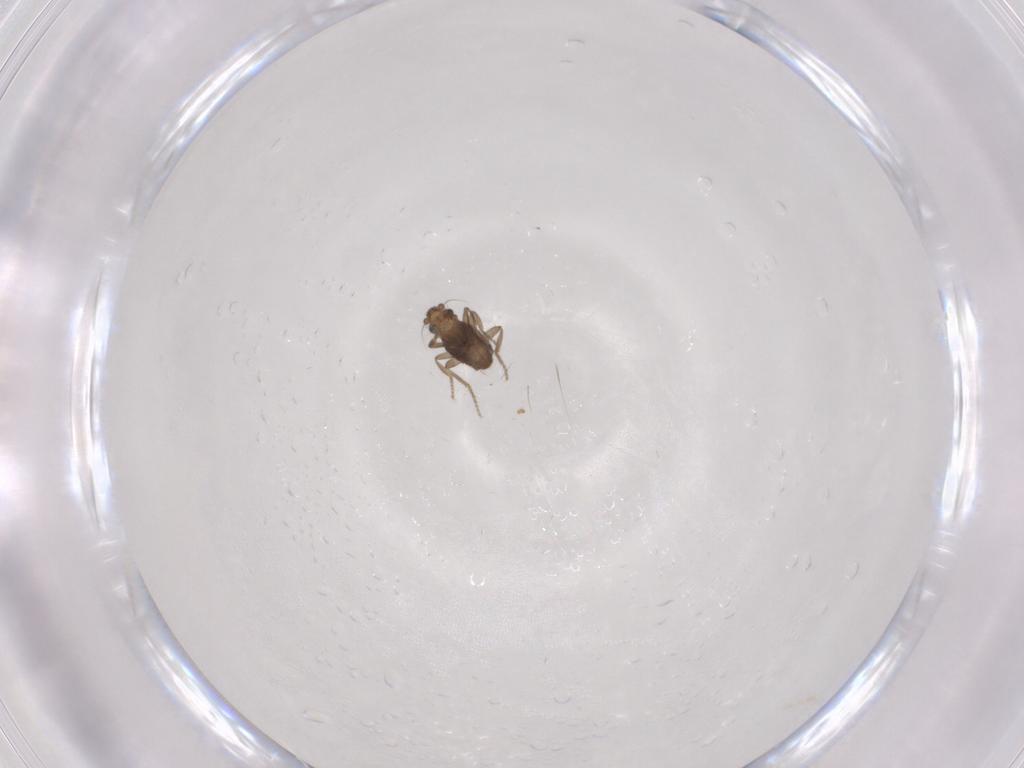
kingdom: Animalia
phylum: Arthropoda
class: Insecta
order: Diptera
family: Phoridae
